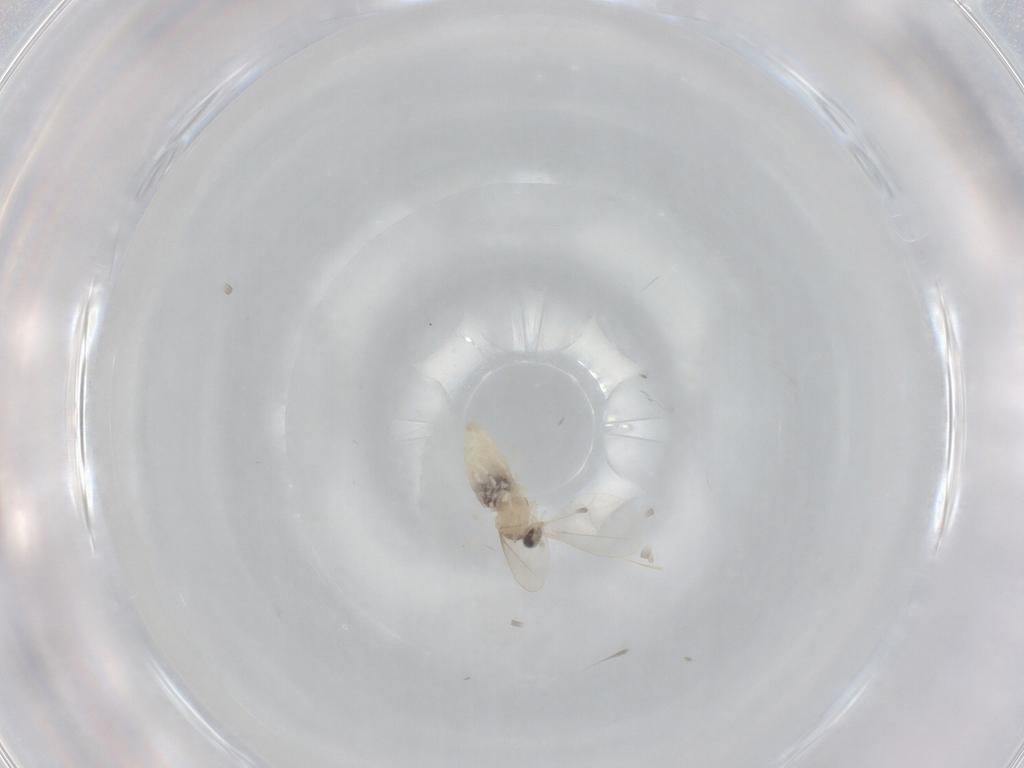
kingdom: Animalia
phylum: Arthropoda
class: Insecta
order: Diptera
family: Cecidomyiidae
